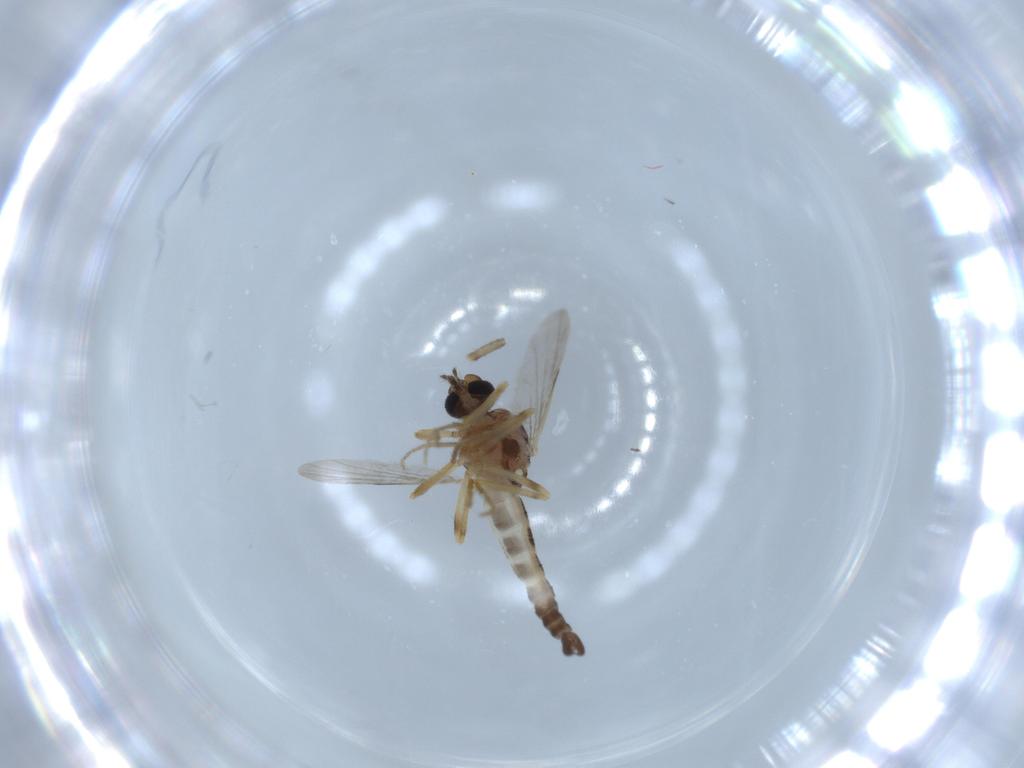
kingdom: Animalia
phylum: Arthropoda
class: Insecta
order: Diptera
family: Ceratopogonidae
